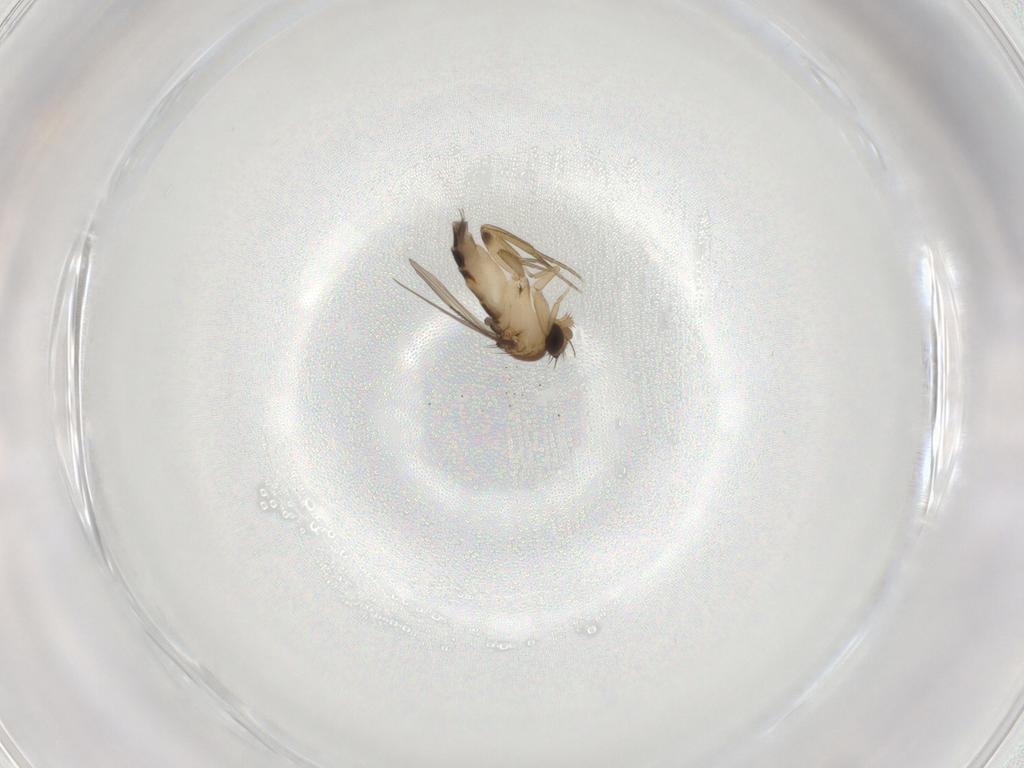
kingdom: Animalia
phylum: Arthropoda
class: Insecta
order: Diptera
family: Phoridae
